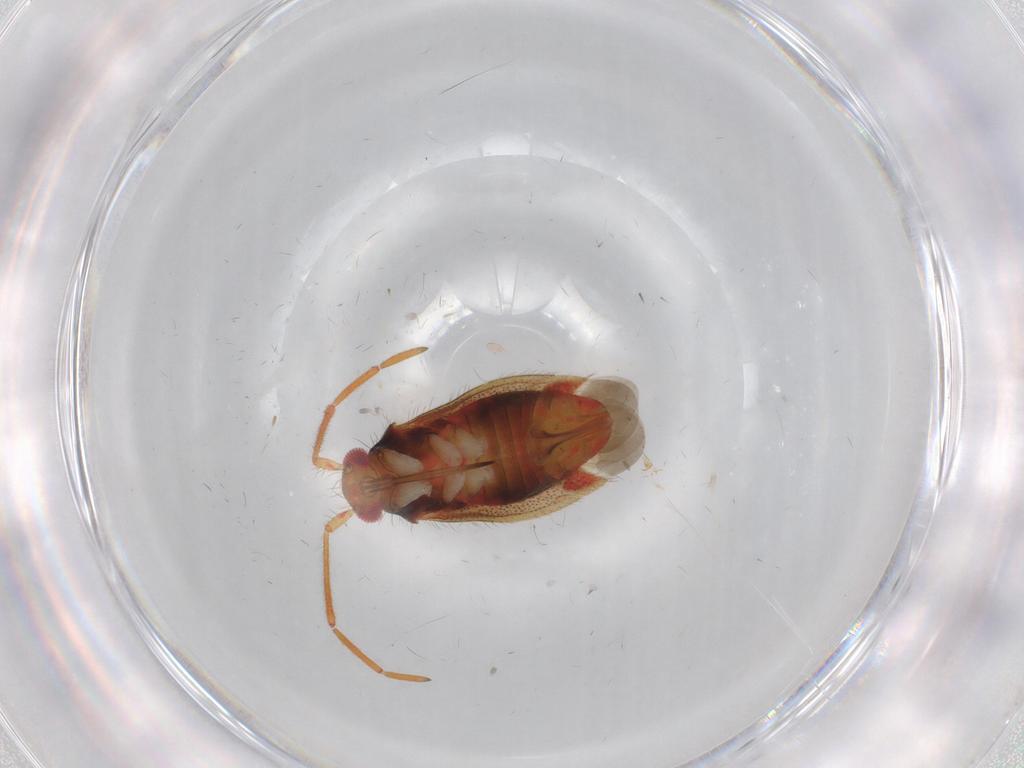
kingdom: Animalia
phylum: Arthropoda
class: Insecta
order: Hemiptera
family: Miridae
